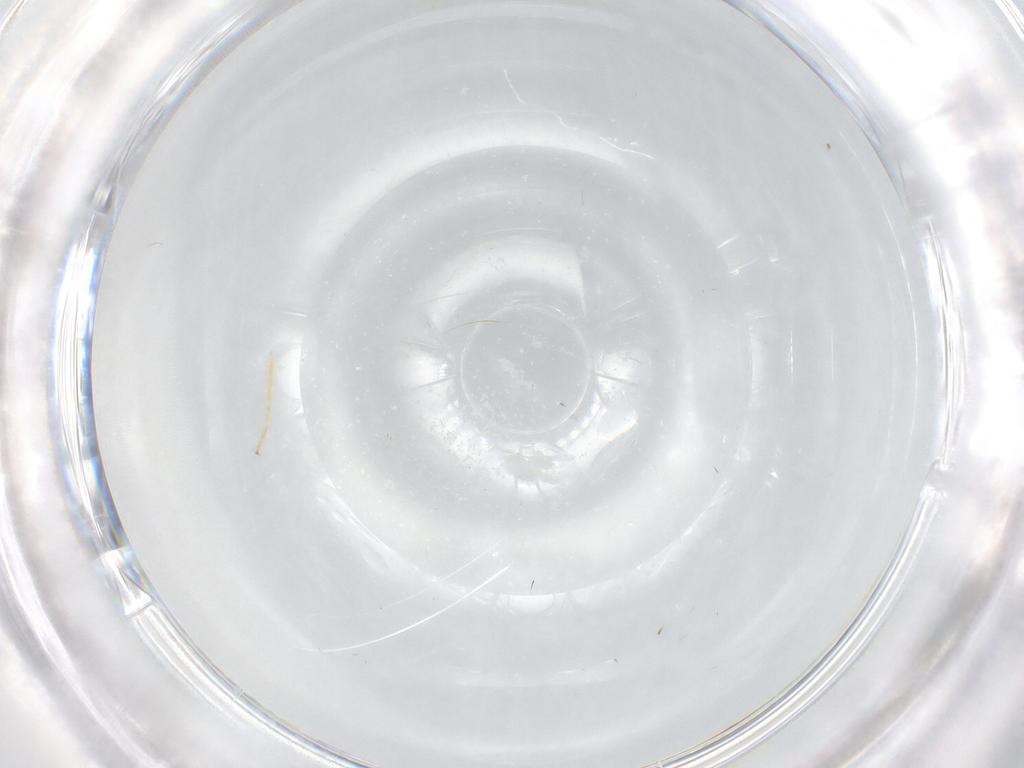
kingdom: Animalia
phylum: Arthropoda
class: Insecta
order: Diptera
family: Chironomidae
